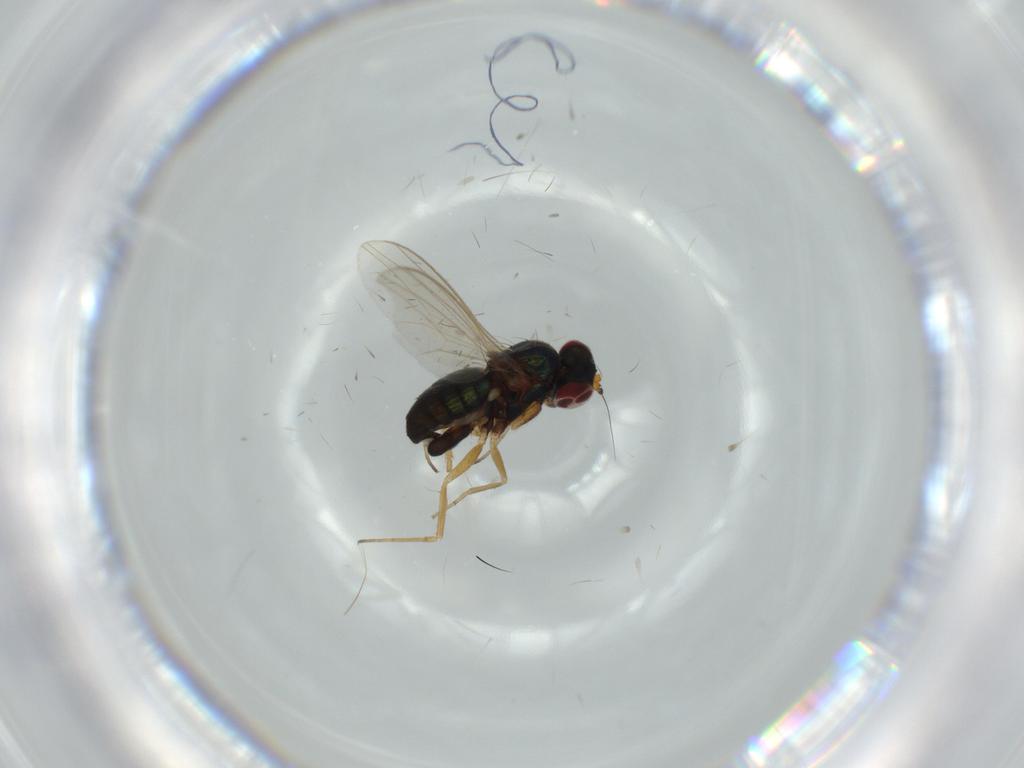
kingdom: Animalia
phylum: Arthropoda
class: Insecta
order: Diptera
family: Dolichopodidae
